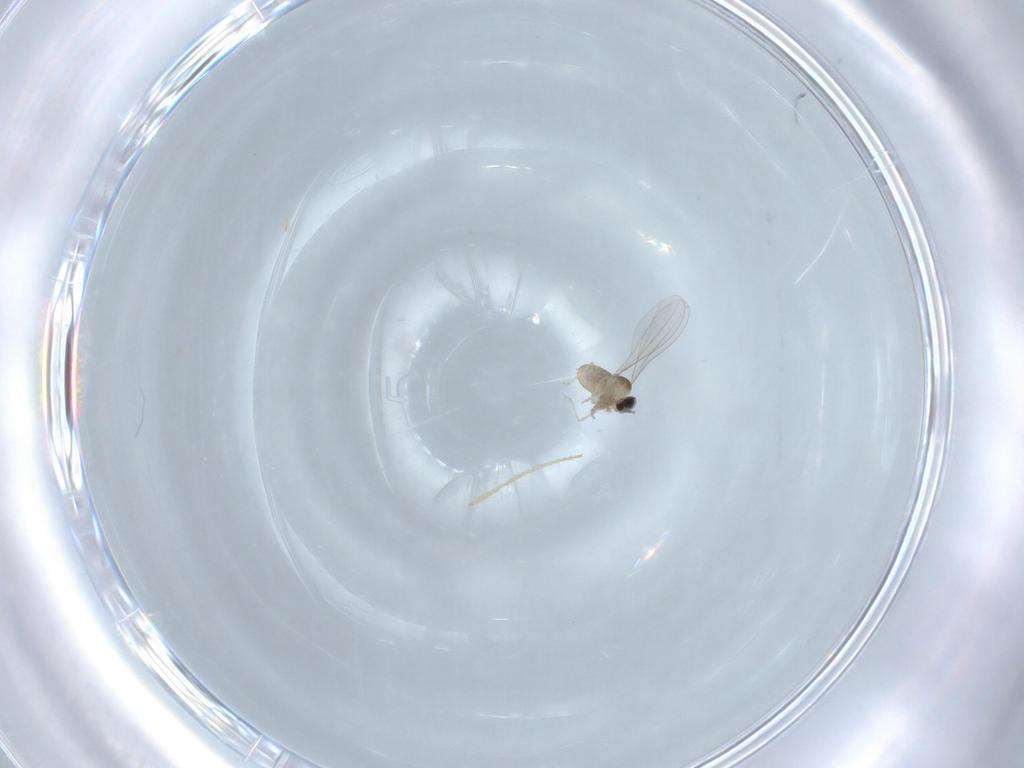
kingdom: Animalia
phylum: Arthropoda
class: Insecta
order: Diptera
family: Cecidomyiidae
